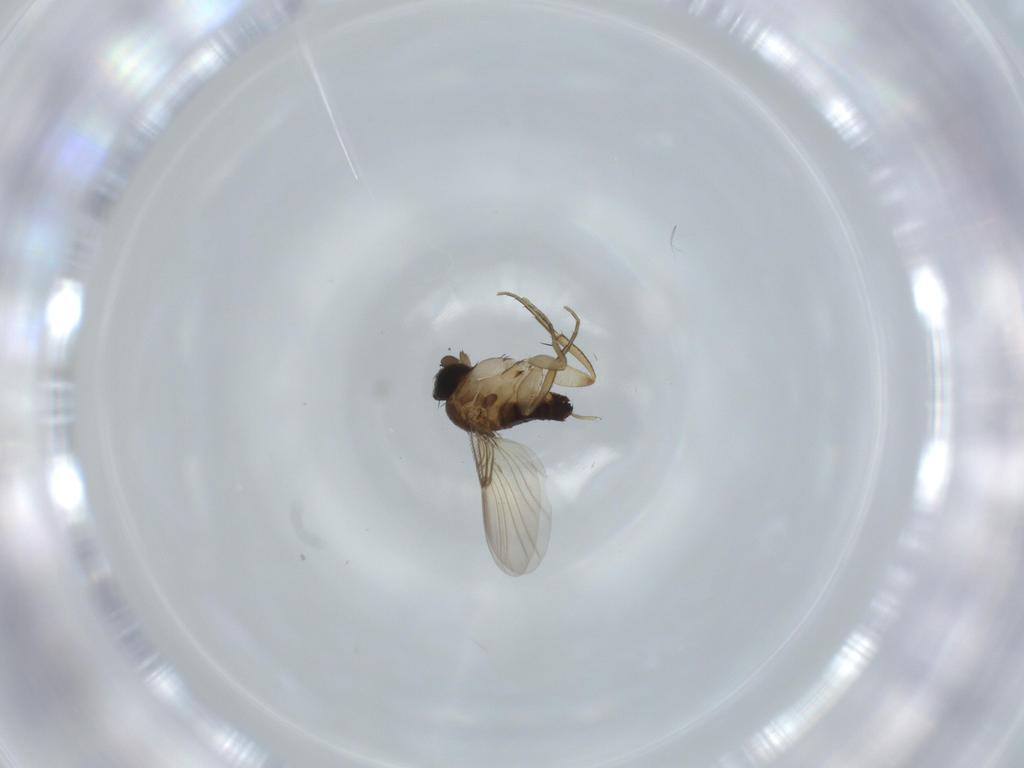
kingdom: Animalia
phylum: Arthropoda
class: Insecta
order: Diptera
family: Phoridae
